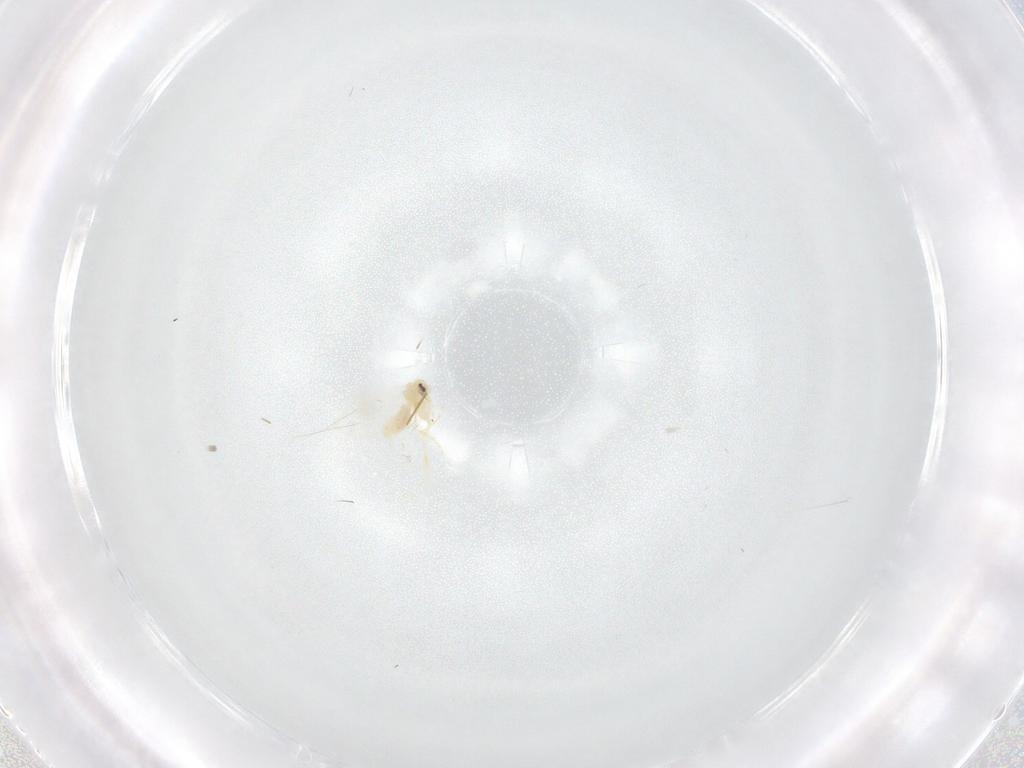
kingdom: Animalia
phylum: Arthropoda
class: Insecta
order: Hemiptera
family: Aleyrodidae
